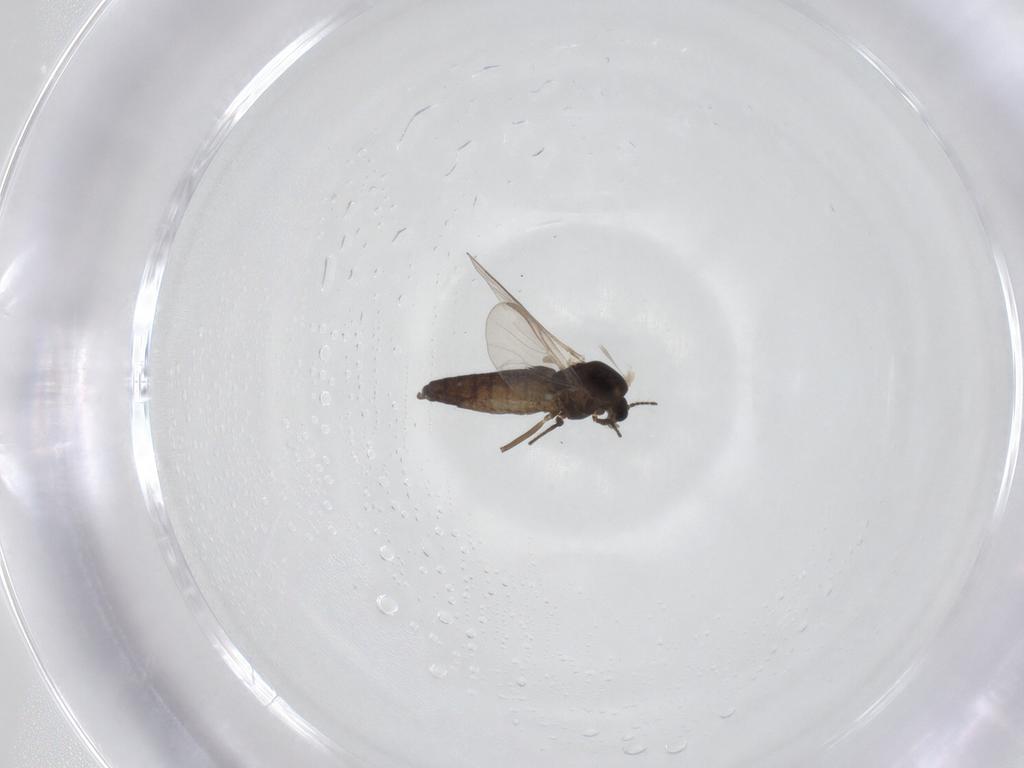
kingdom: Animalia
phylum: Arthropoda
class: Insecta
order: Diptera
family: Chironomidae
